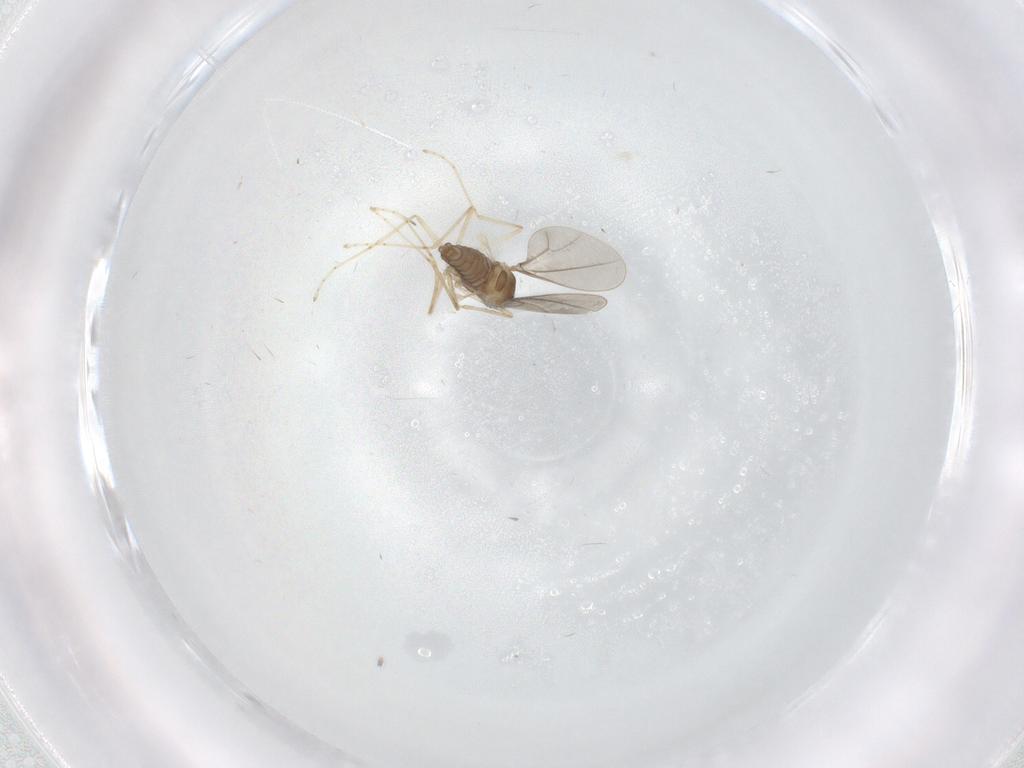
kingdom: Animalia
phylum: Arthropoda
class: Insecta
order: Diptera
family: Cecidomyiidae
